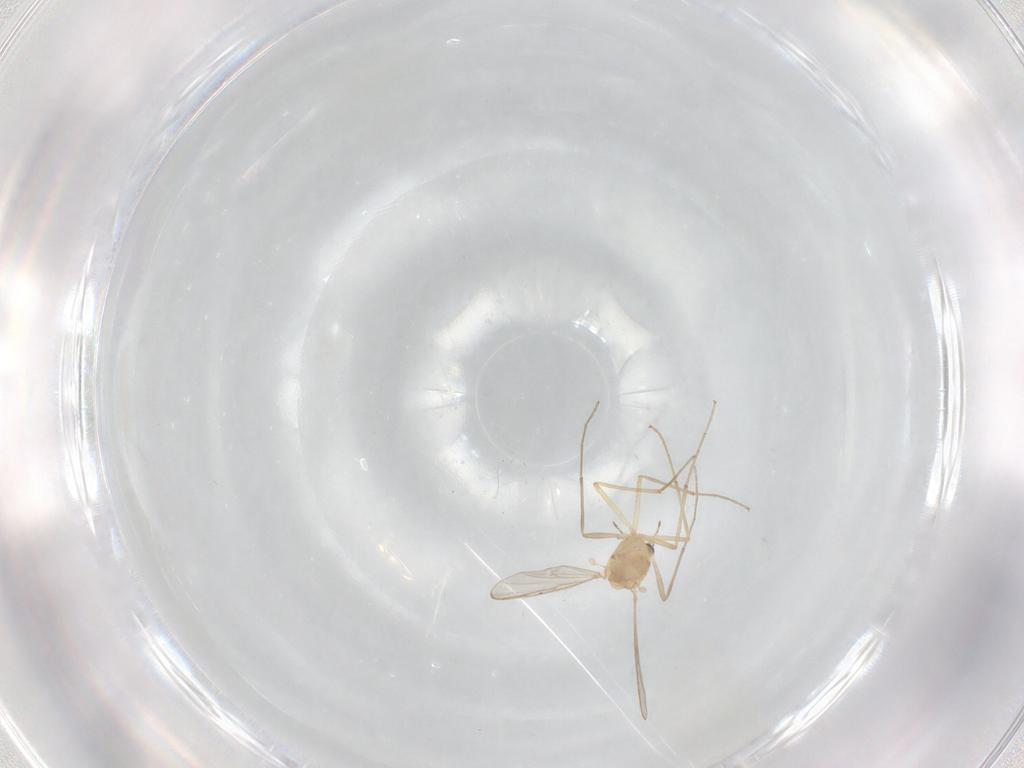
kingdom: Animalia
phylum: Arthropoda
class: Insecta
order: Diptera
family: Chironomidae
